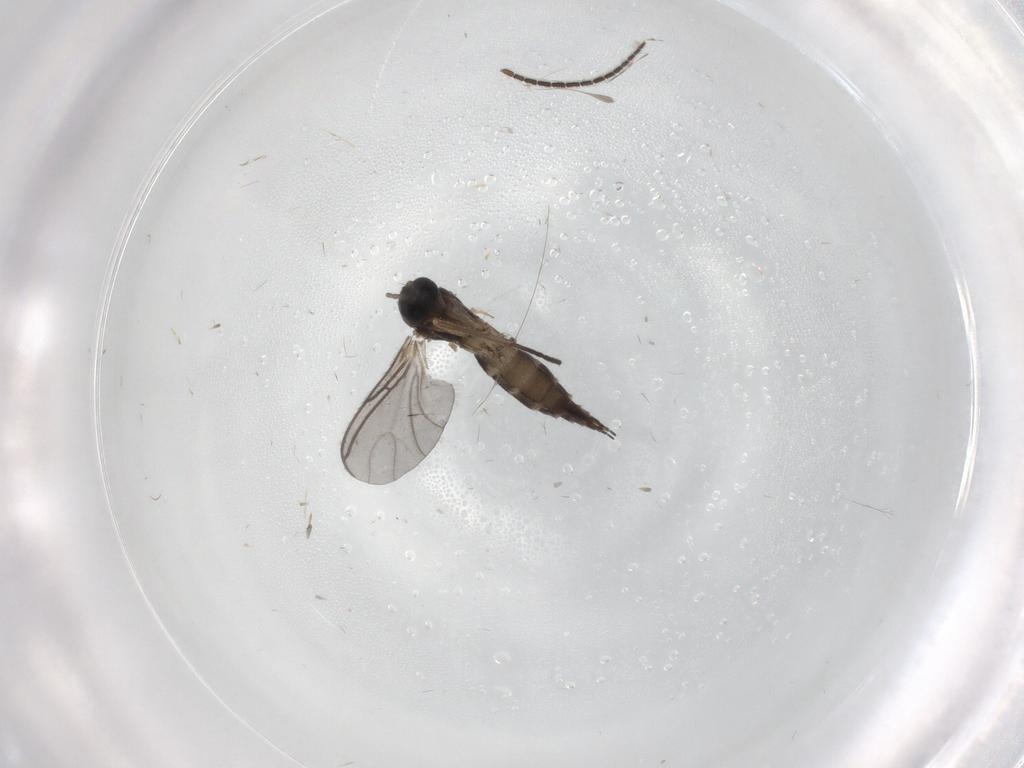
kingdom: Animalia
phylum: Arthropoda
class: Insecta
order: Diptera
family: Sciaridae
